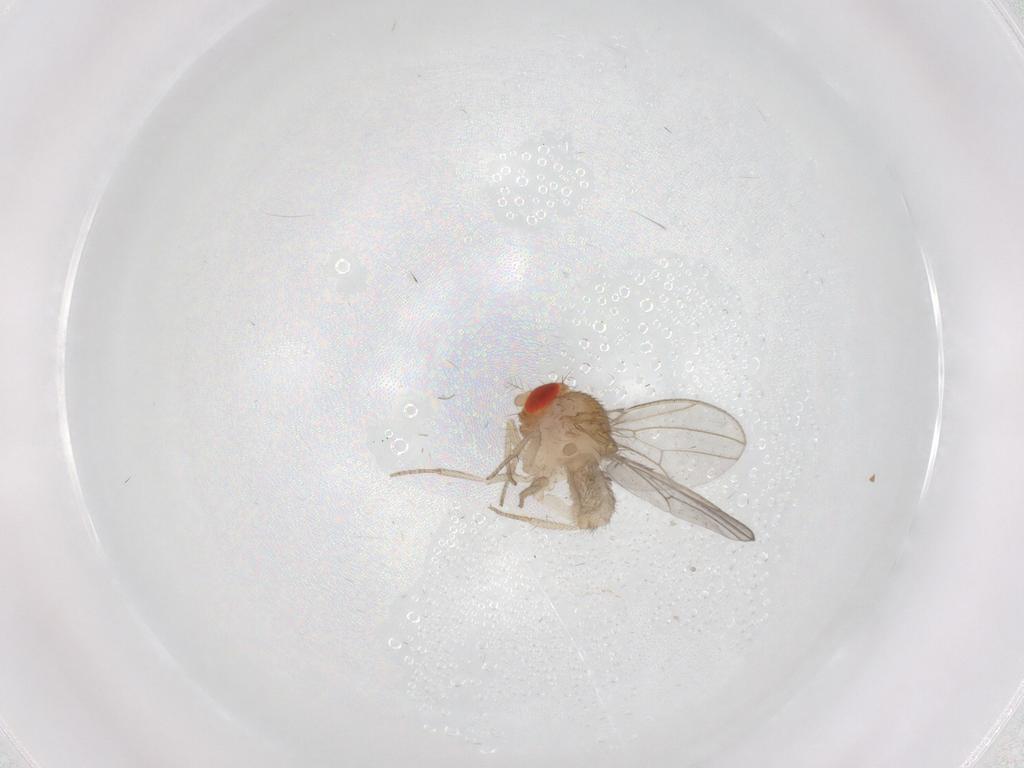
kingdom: Animalia
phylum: Arthropoda
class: Insecta
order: Diptera
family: Drosophilidae
